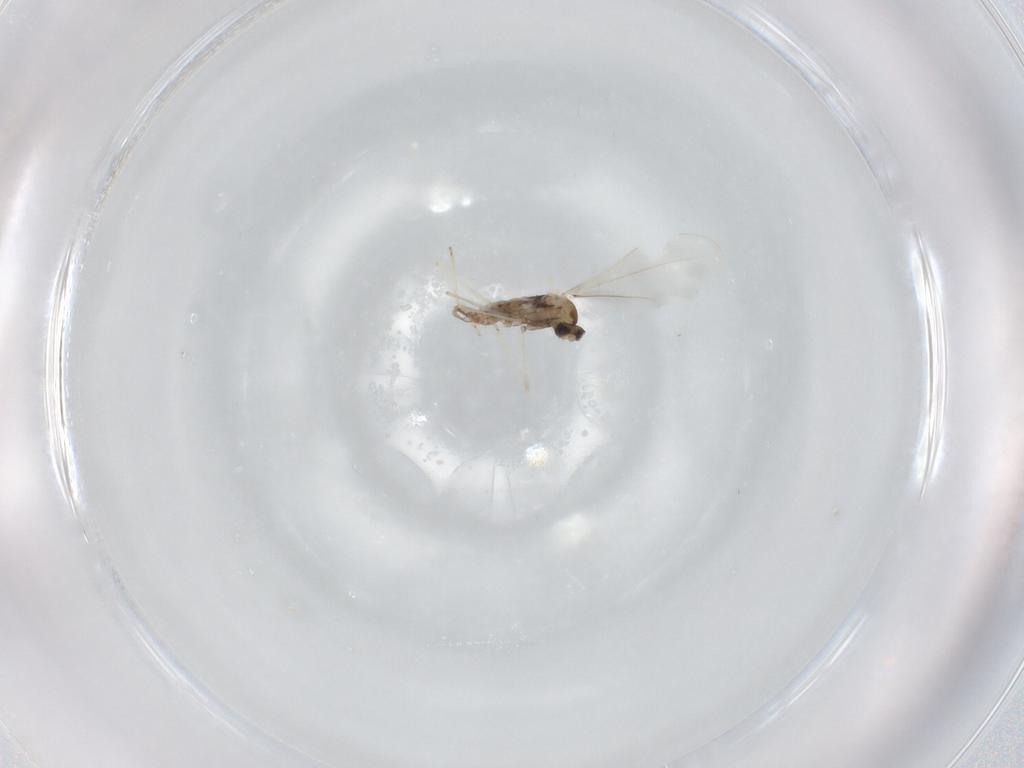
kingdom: Animalia
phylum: Arthropoda
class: Insecta
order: Diptera
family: Cecidomyiidae
